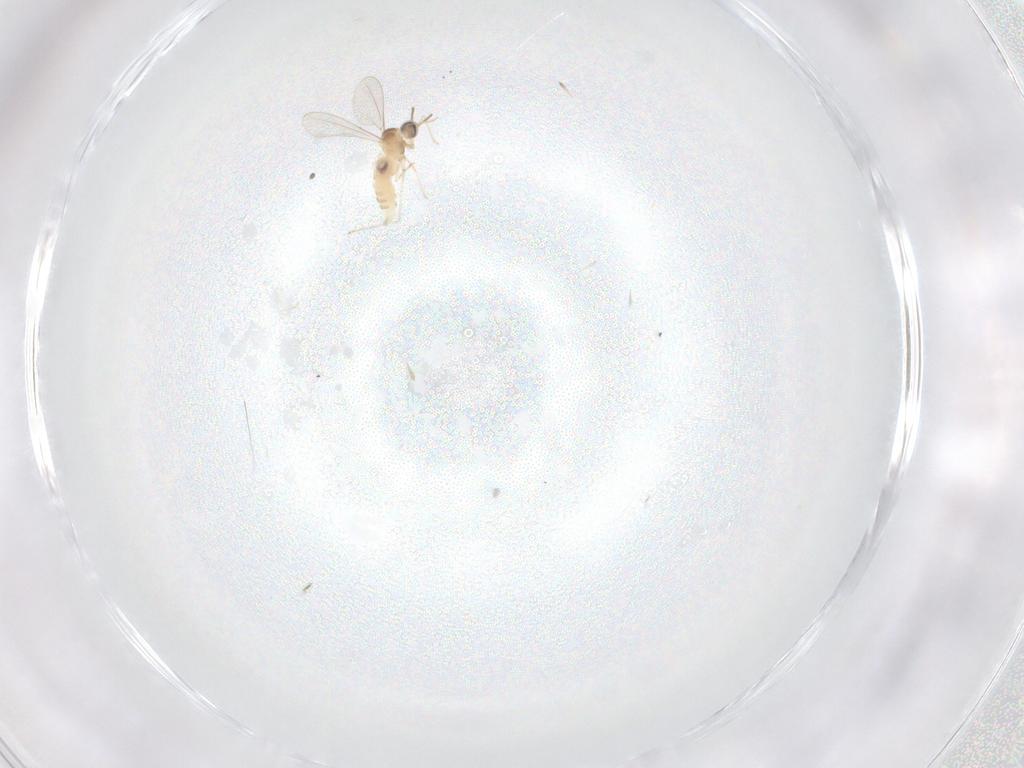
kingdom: Animalia
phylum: Arthropoda
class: Insecta
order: Diptera
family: Cecidomyiidae
